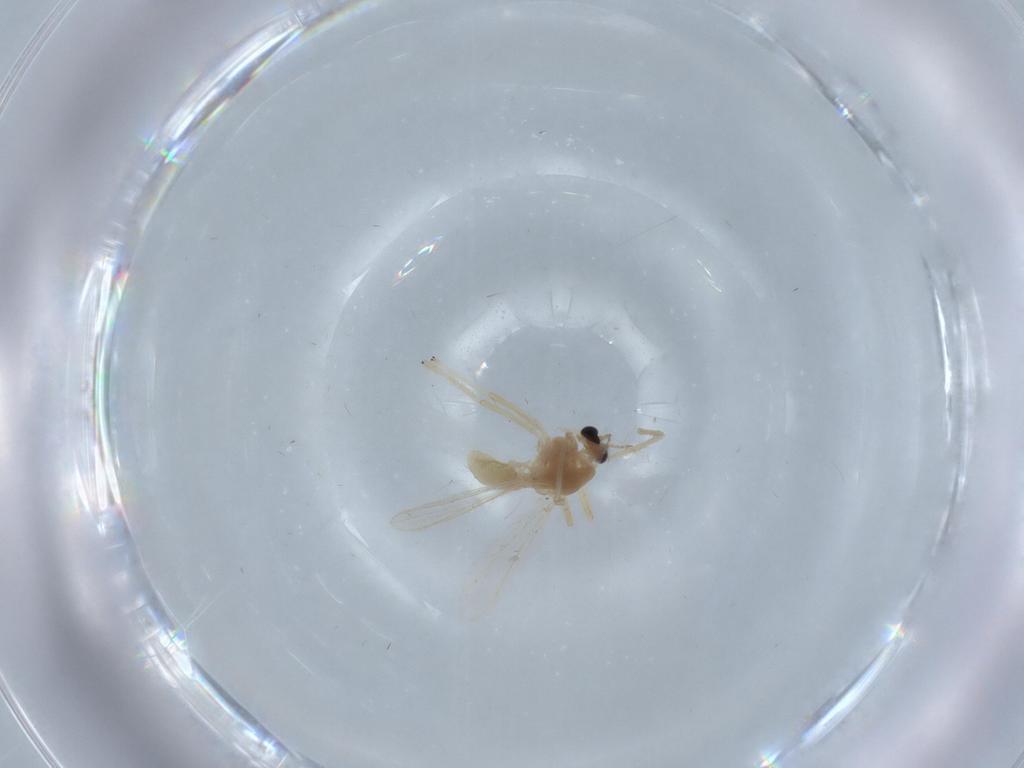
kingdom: Animalia
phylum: Arthropoda
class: Insecta
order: Diptera
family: Chironomidae
